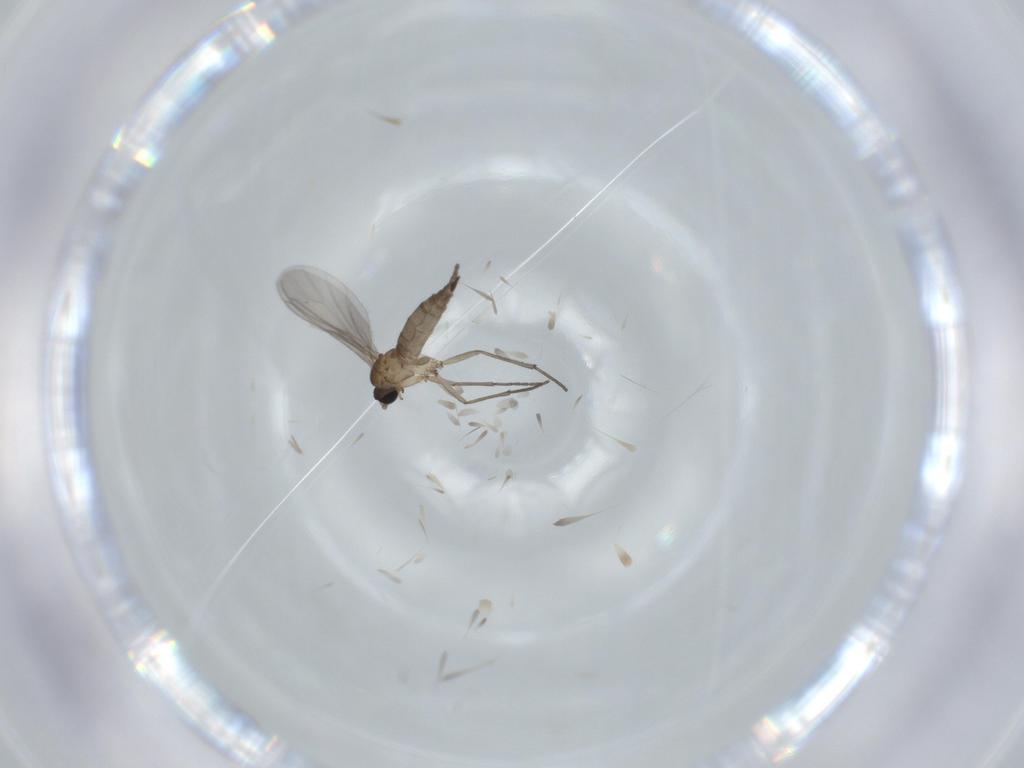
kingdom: Animalia
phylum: Arthropoda
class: Insecta
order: Diptera
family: Sciaridae
